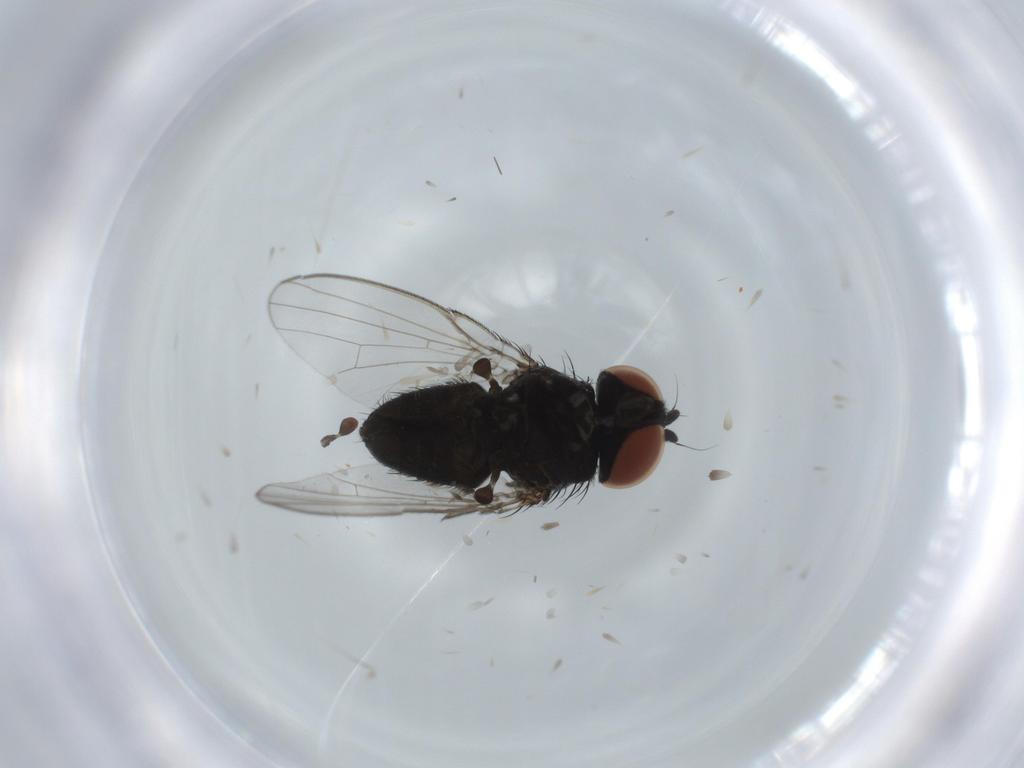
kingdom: Animalia
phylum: Arthropoda
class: Insecta
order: Diptera
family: Milichiidae
